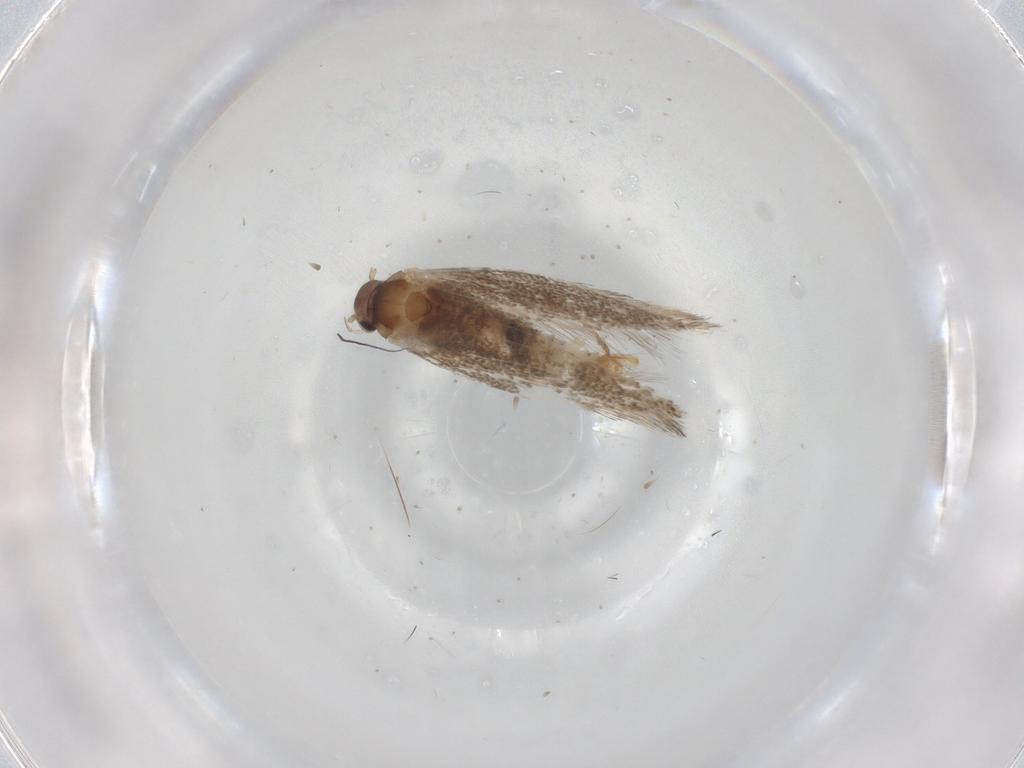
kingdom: Animalia
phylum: Arthropoda
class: Insecta
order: Lepidoptera
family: Elachistidae
